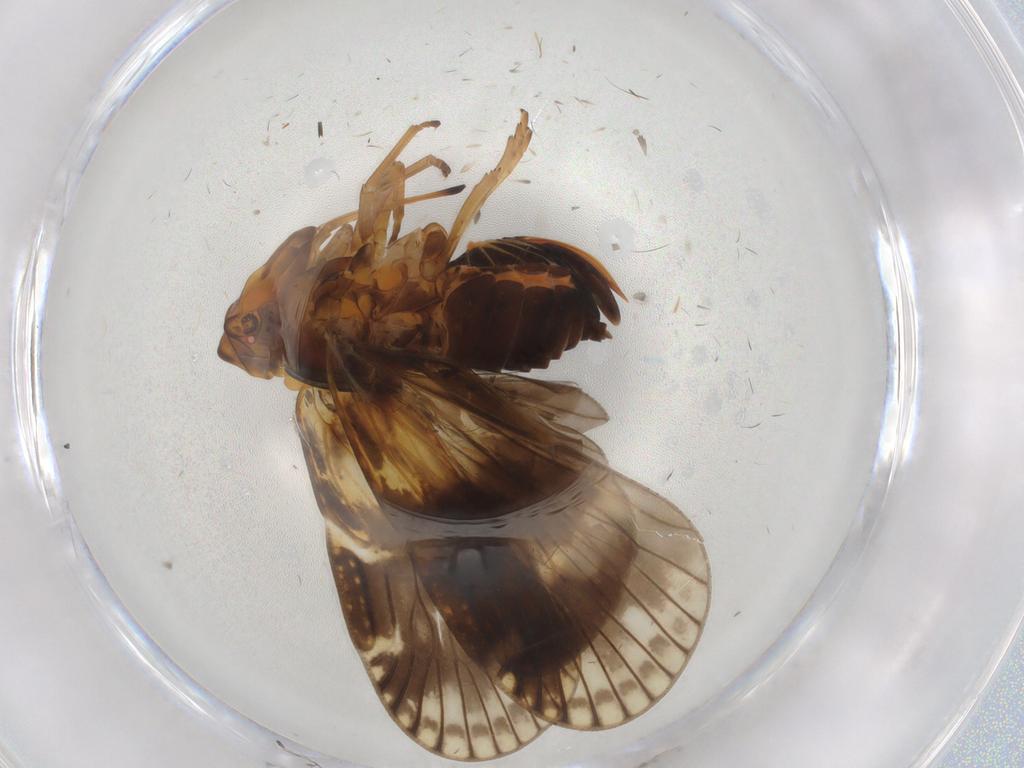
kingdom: Animalia
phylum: Arthropoda
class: Insecta
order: Hemiptera
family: Cixiidae
